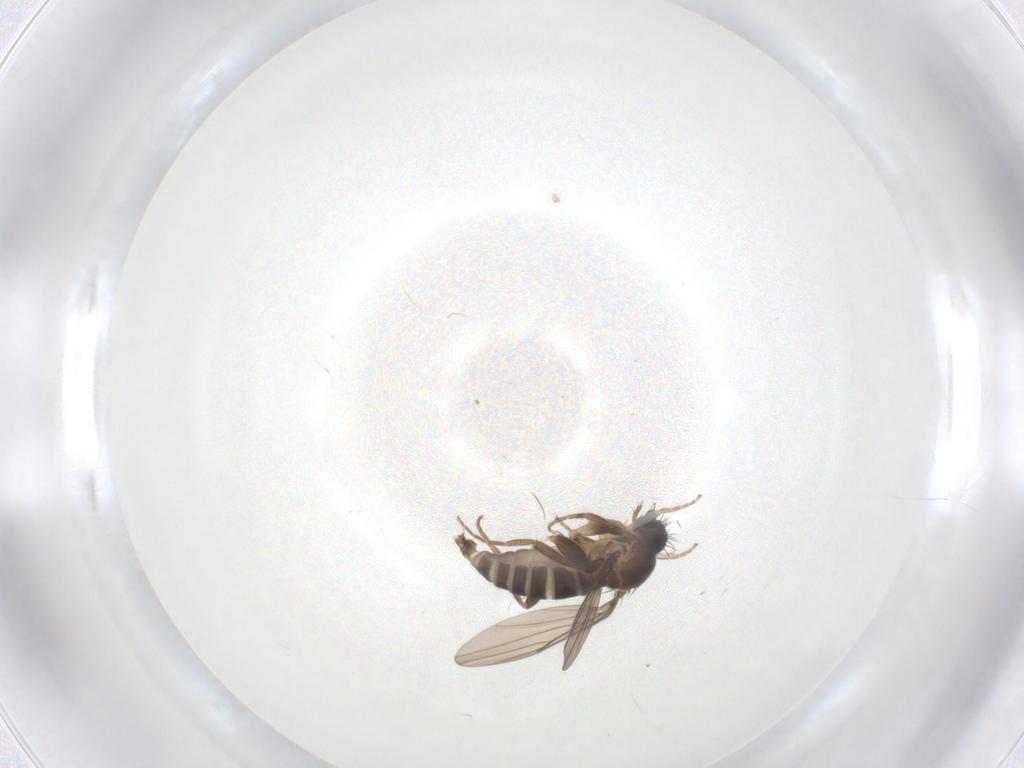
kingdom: Animalia
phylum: Arthropoda
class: Insecta
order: Diptera
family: Phoridae
